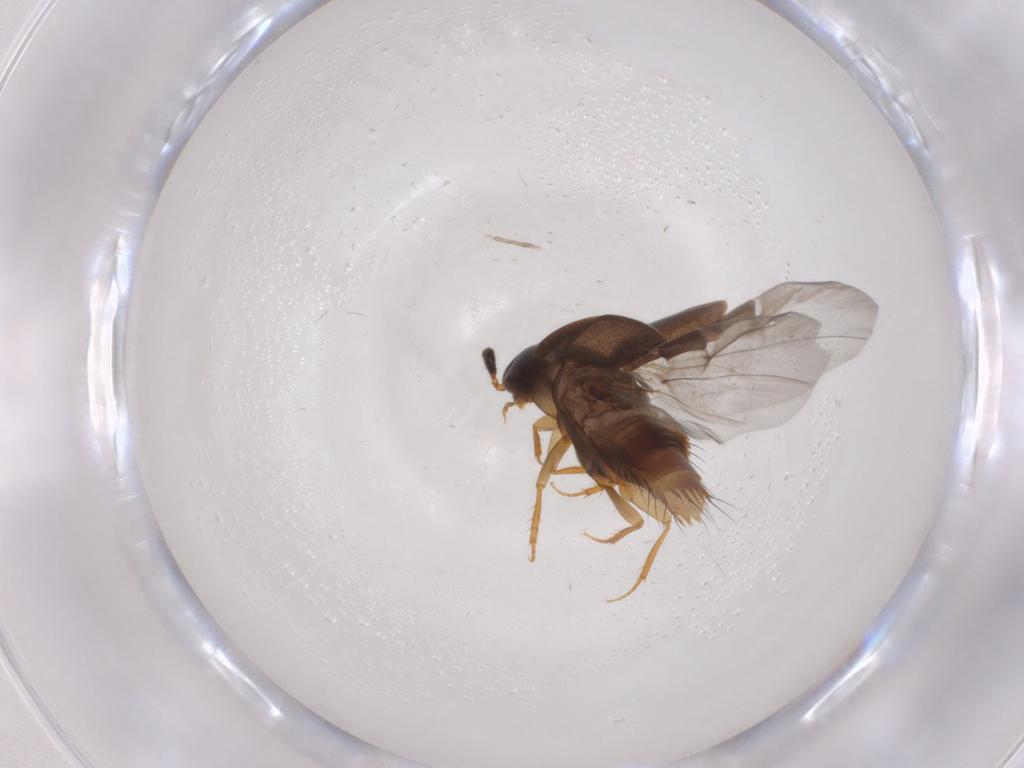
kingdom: Animalia
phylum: Arthropoda
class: Insecta
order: Coleoptera
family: Staphylinidae
